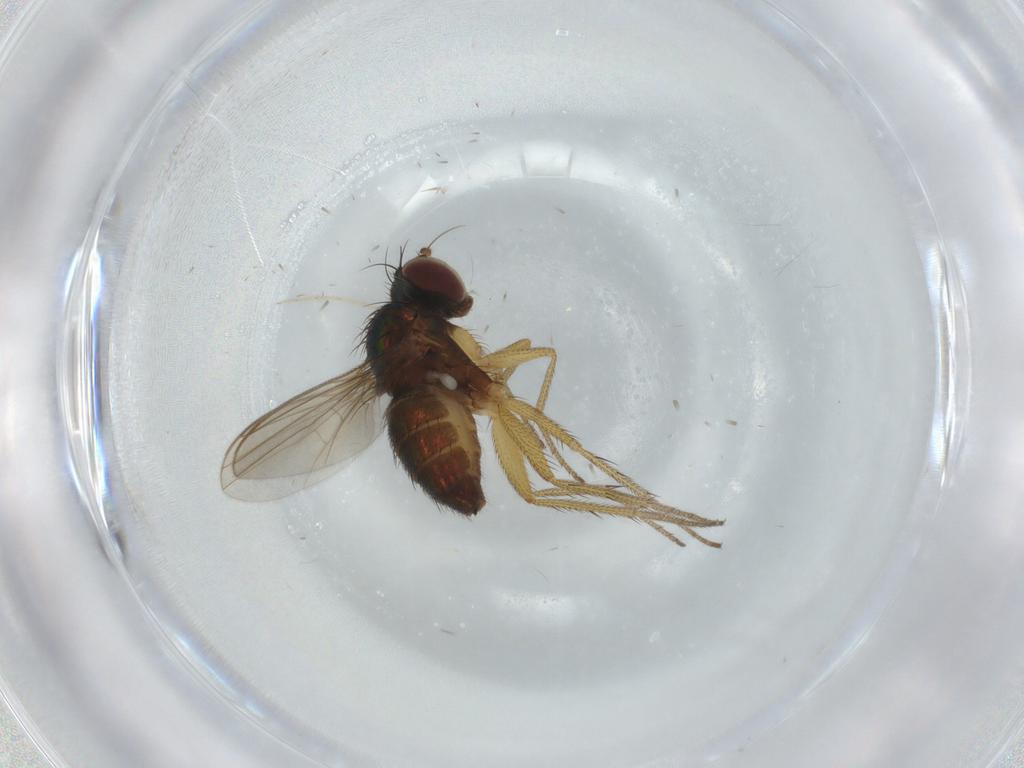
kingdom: Animalia
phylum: Arthropoda
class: Insecta
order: Diptera
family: Dolichopodidae
